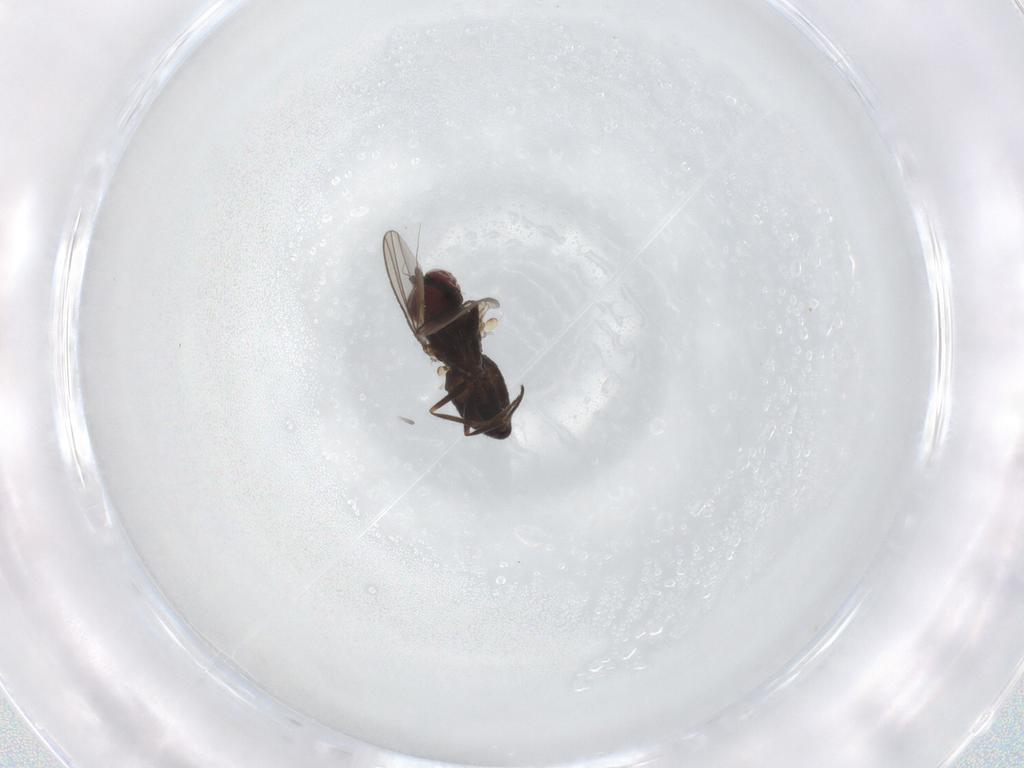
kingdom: Animalia
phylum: Arthropoda
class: Insecta
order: Diptera
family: Dolichopodidae
